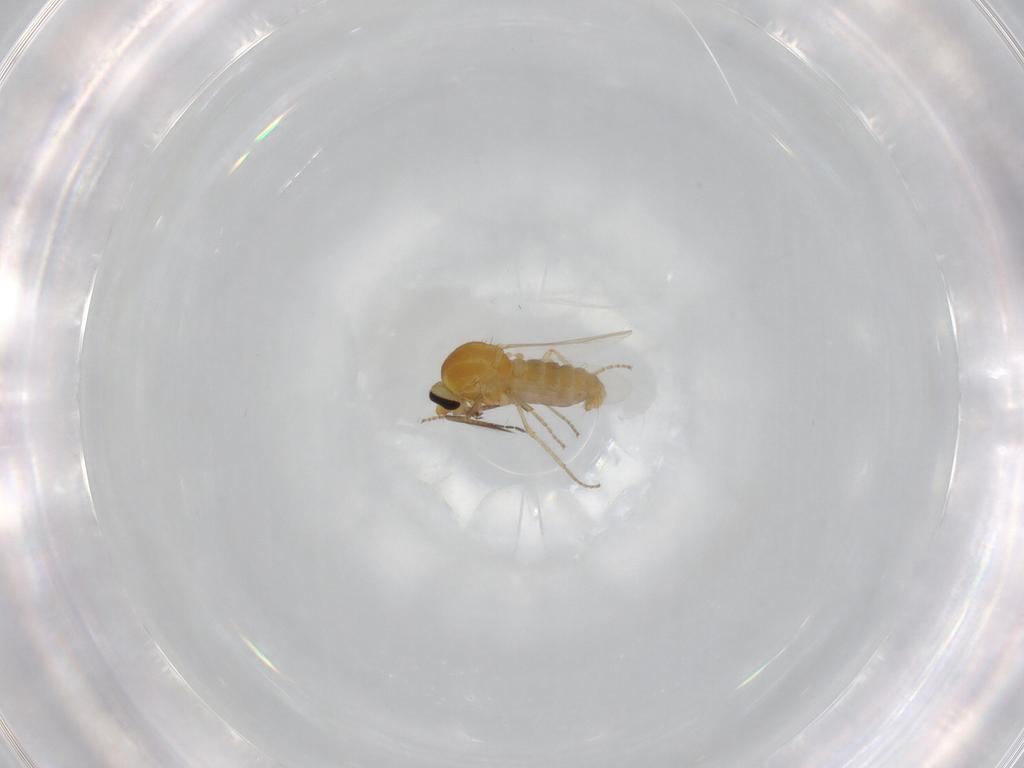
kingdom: Animalia
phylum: Arthropoda
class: Insecta
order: Diptera
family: Ceratopogonidae
